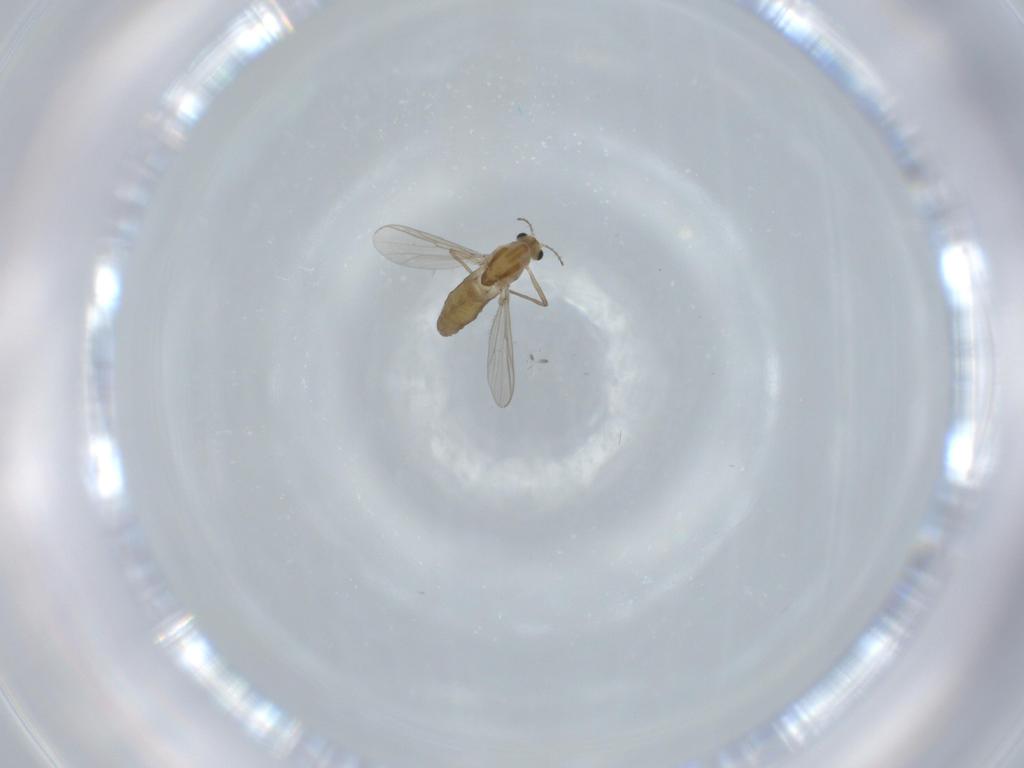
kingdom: Animalia
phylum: Arthropoda
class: Insecta
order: Diptera
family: Chironomidae
